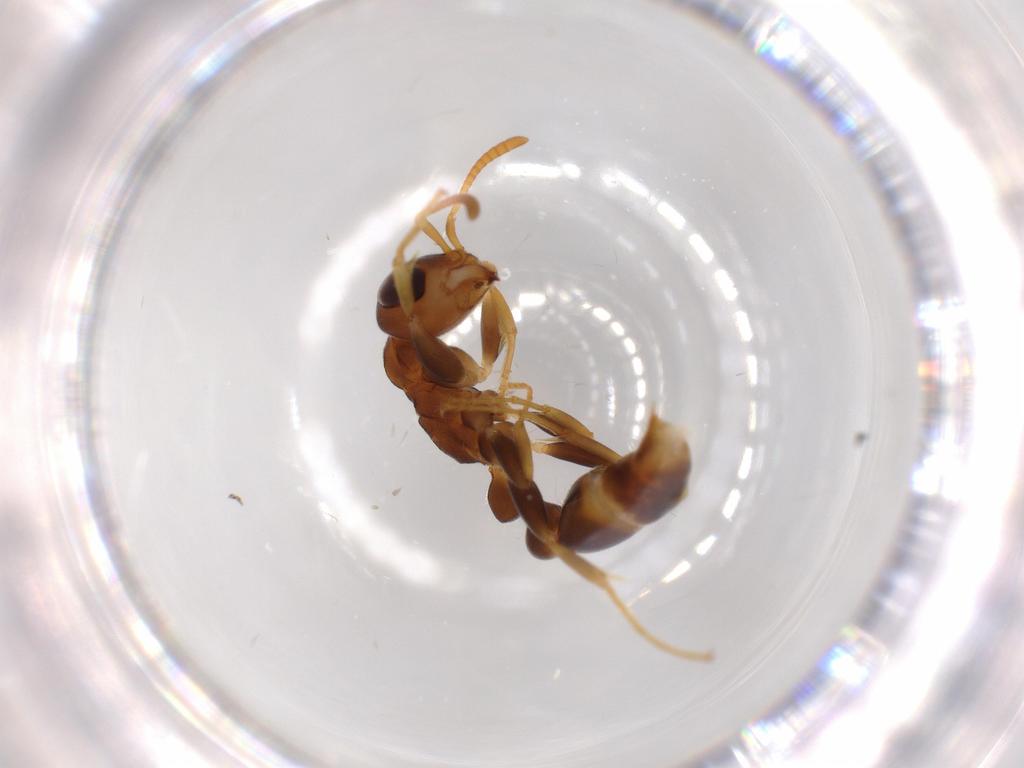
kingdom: Animalia
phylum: Arthropoda
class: Insecta
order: Hymenoptera
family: Formicidae
